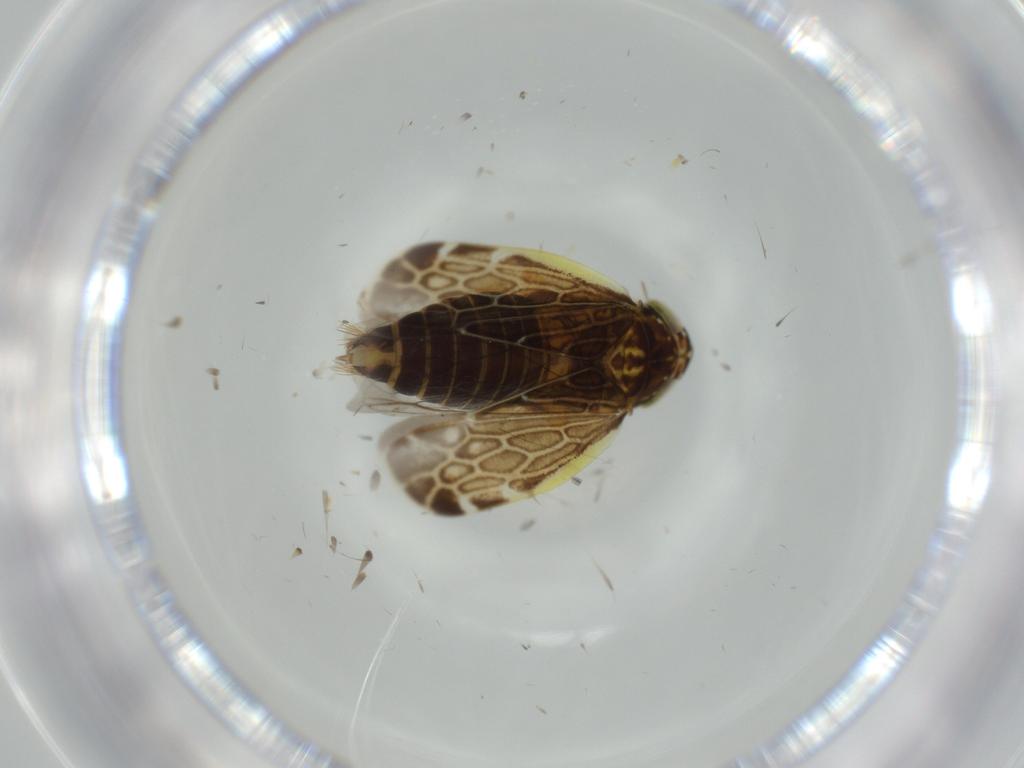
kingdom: Animalia
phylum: Arthropoda
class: Insecta
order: Hemiptera
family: Cicadellidae
